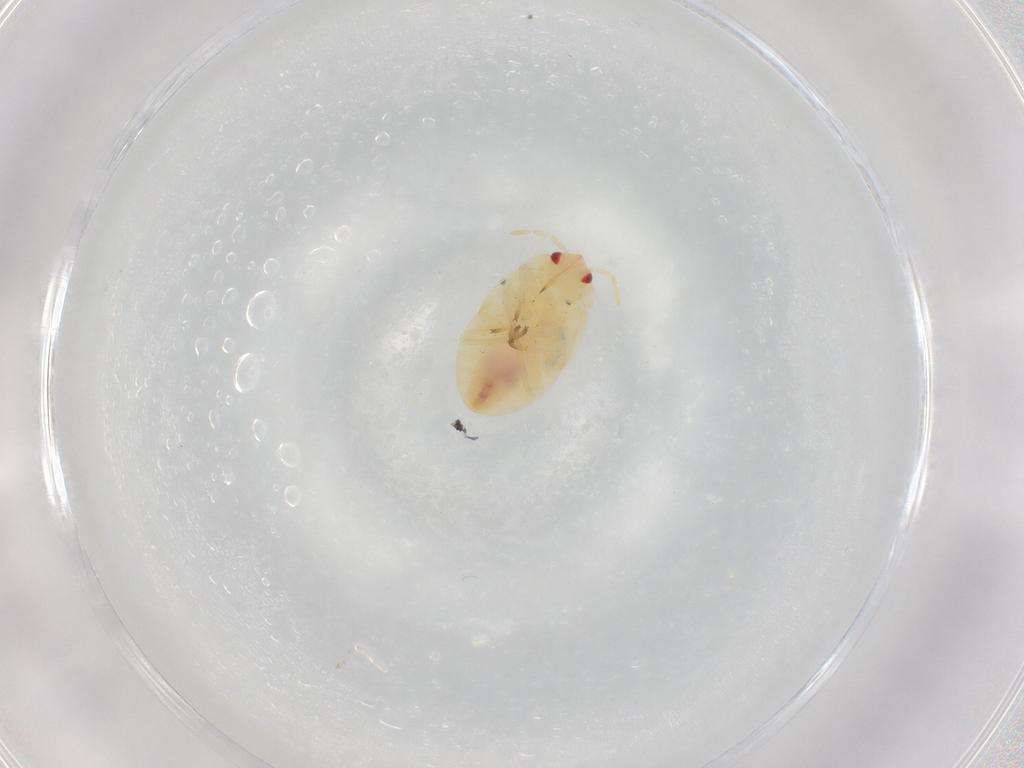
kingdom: Animalia
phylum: Arthropoda
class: Insecta
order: Hemiptera
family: Anthocoridae
